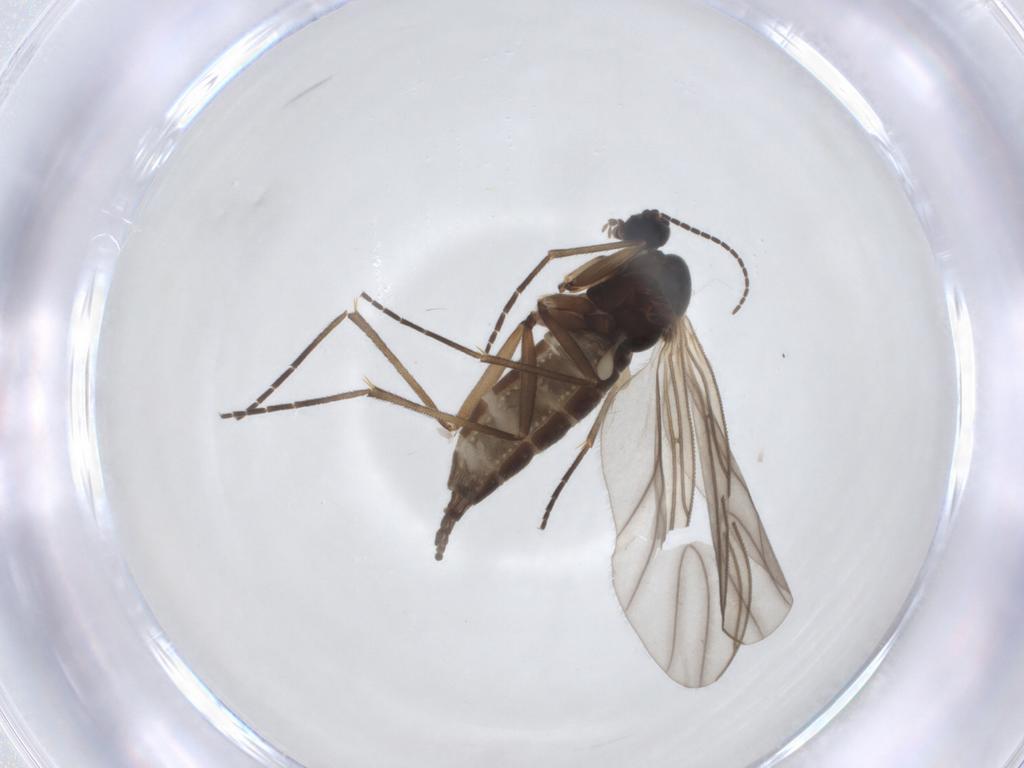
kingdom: Animalia
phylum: Arthropoda
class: Insecta
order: Diptera
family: Sciaridae
